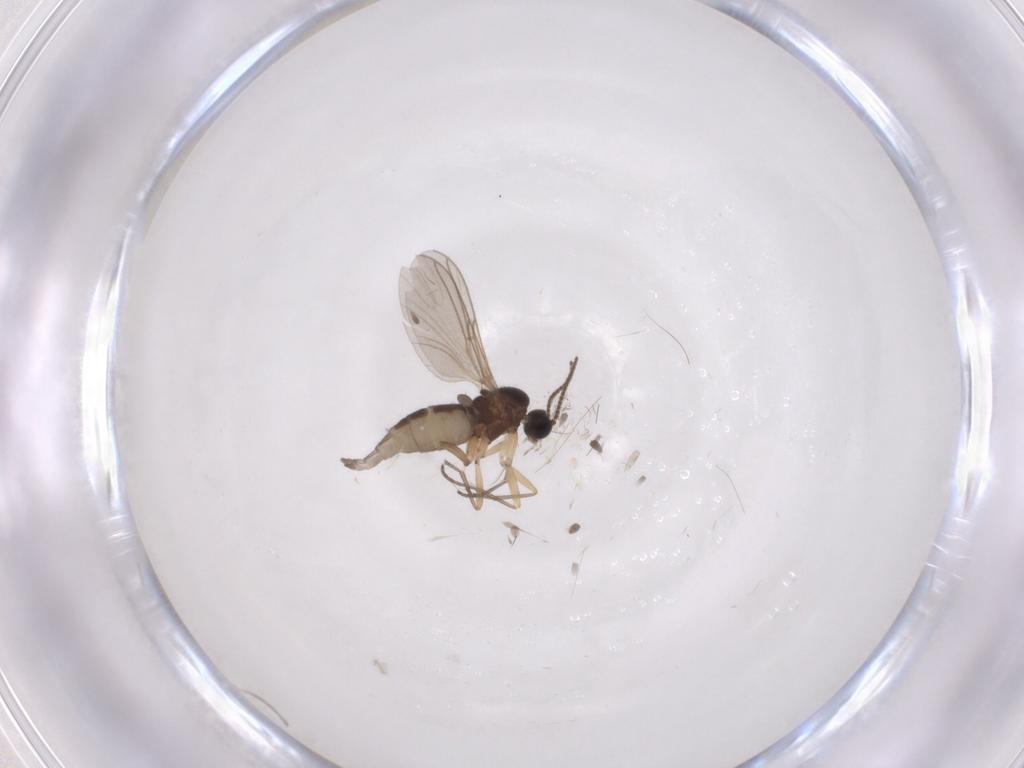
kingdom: Animalia
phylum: Arthropoda
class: Insecta
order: Diptera
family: Sciaridae
